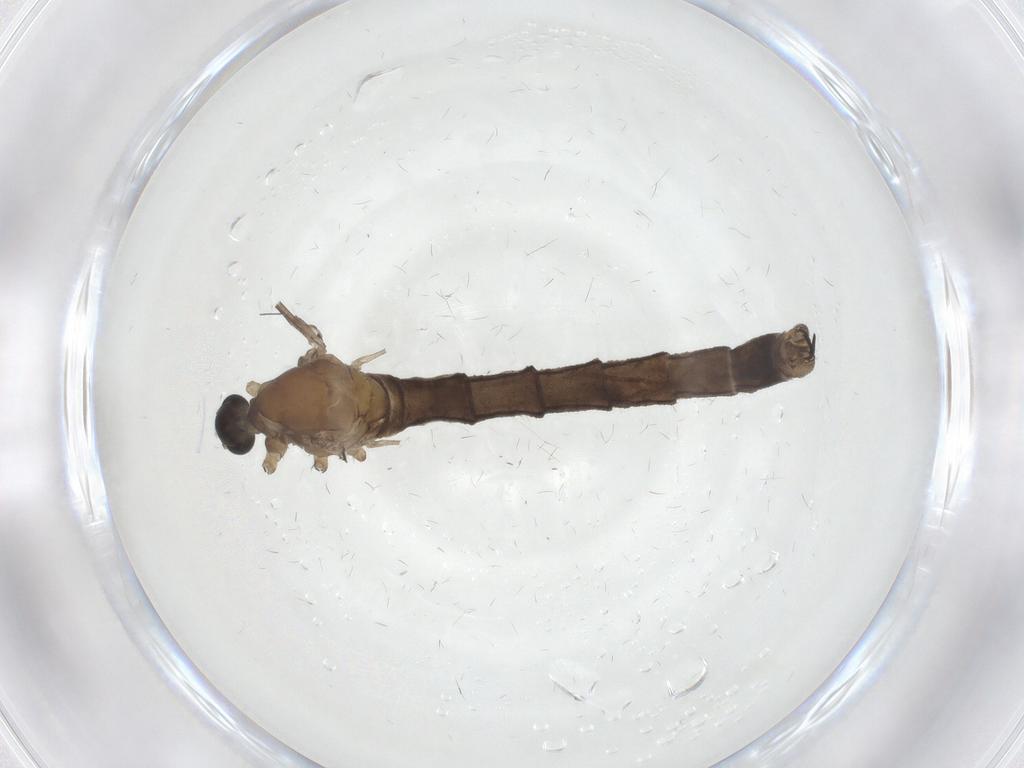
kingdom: Animalia
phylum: Arthropoda
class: Insecta
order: Diptera
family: Limoniidae
